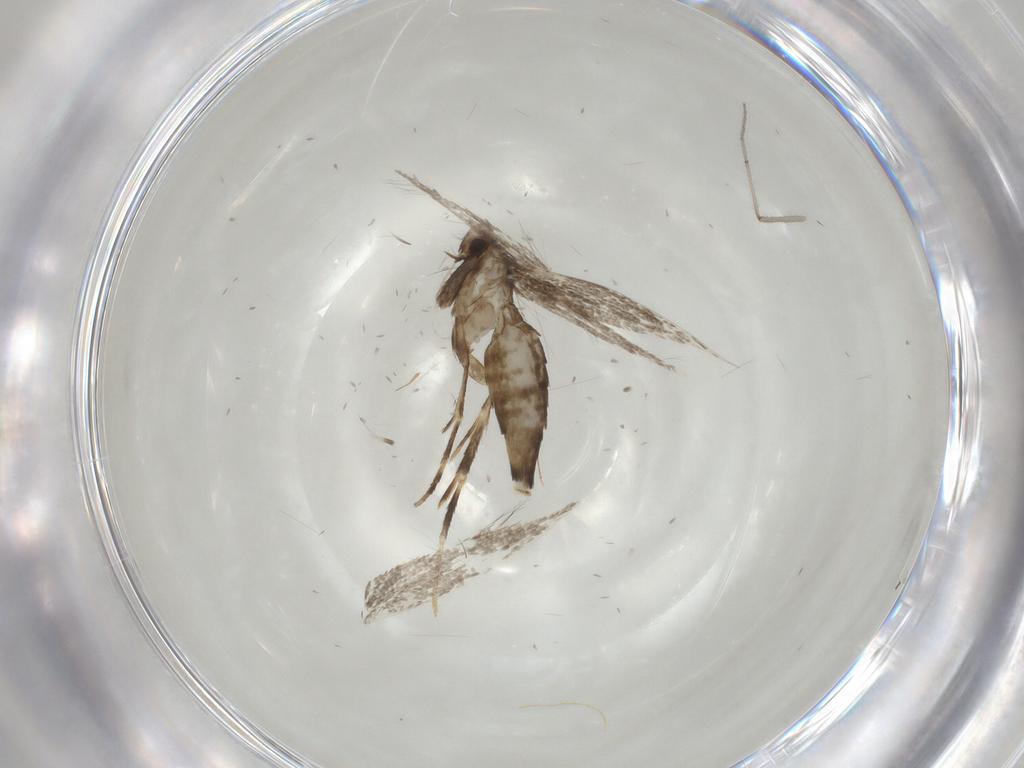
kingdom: Animalia
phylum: Arthropoda
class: Insecta
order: Lepidoptera
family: Gracillariidae
